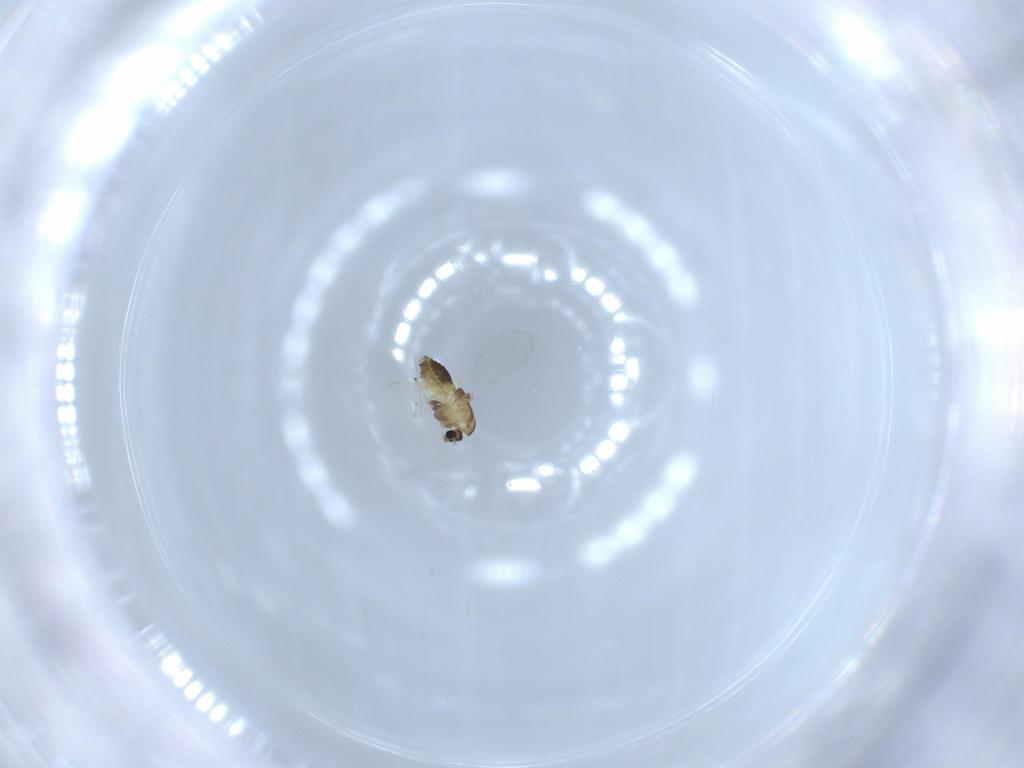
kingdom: Animalia
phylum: Arthropoda
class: Insecta
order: Diptera
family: Chironomidae
